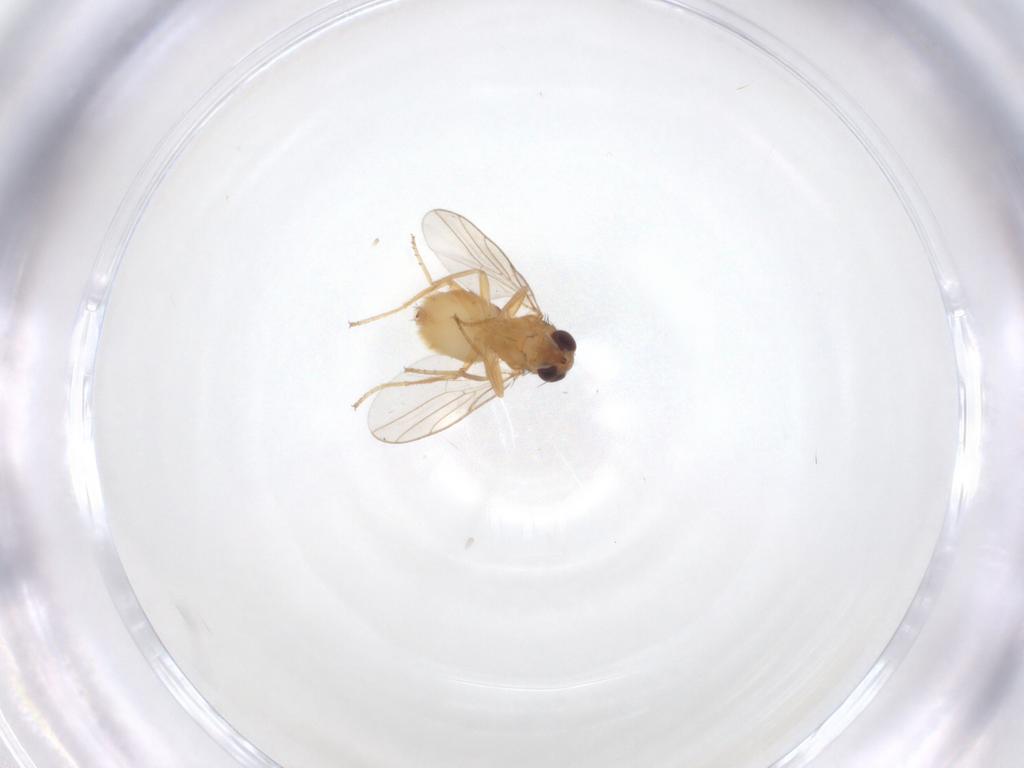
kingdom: Animalia
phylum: Arthropoda
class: Insecta
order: Diptera
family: Chloropidae
